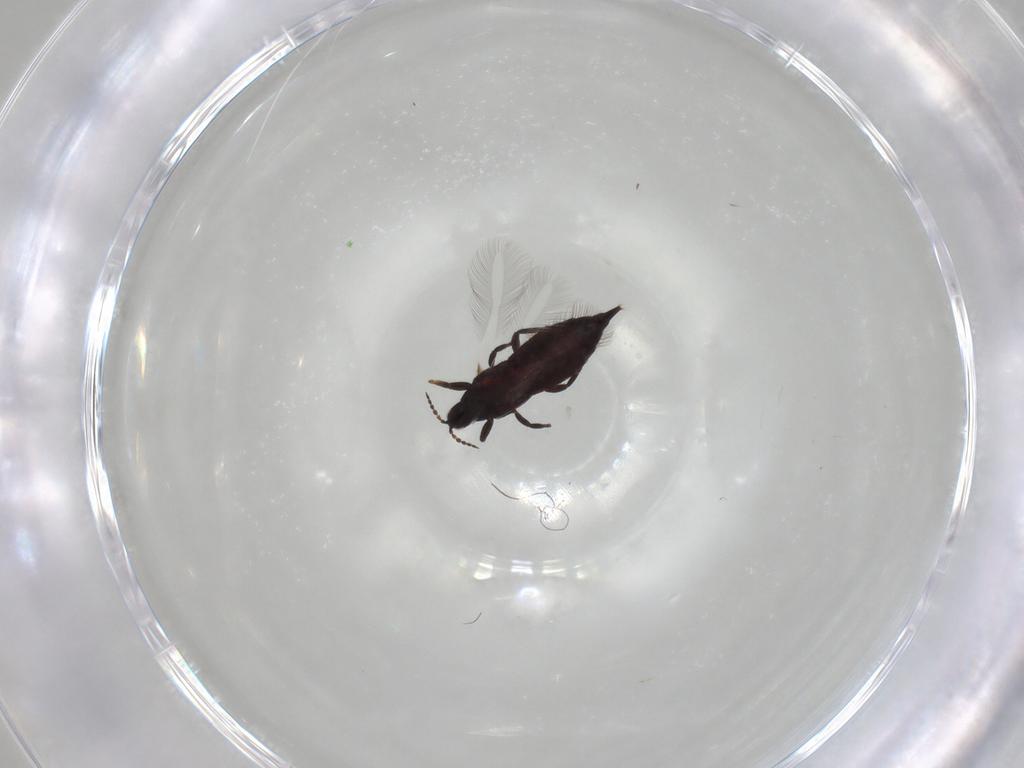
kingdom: Animalia
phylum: Arthropoda
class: Insecta
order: Thysanoptera
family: Phlaeothripidae
